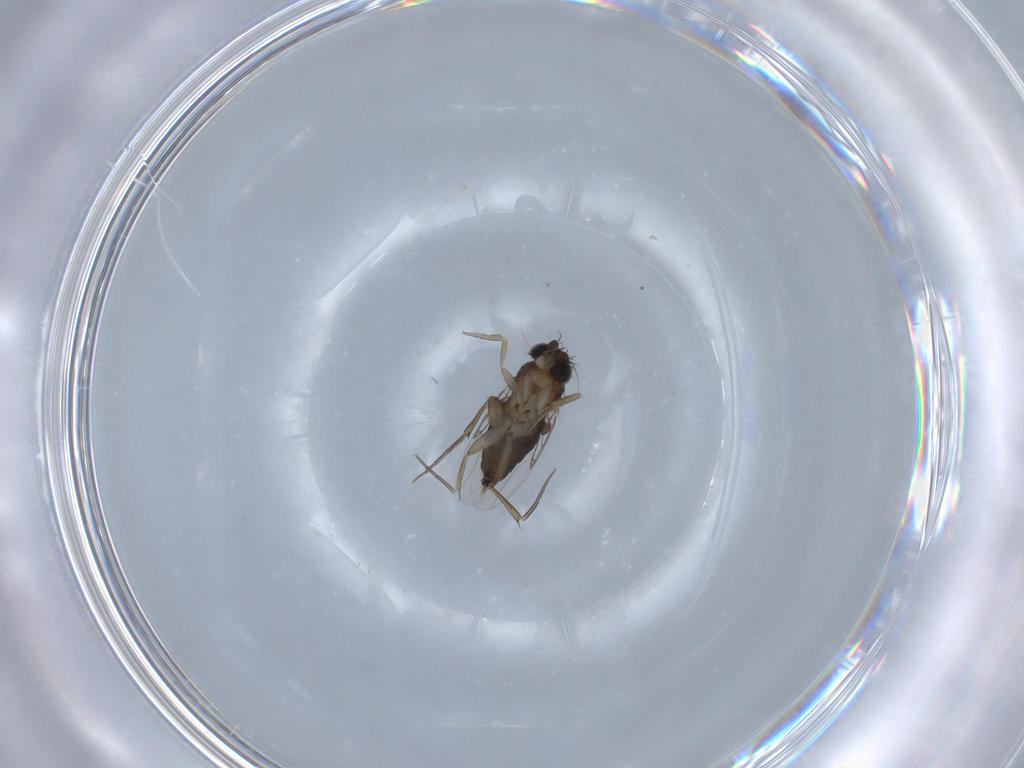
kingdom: Animalia
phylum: Arthropoda
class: Insecta
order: Diptera
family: Phoridae
